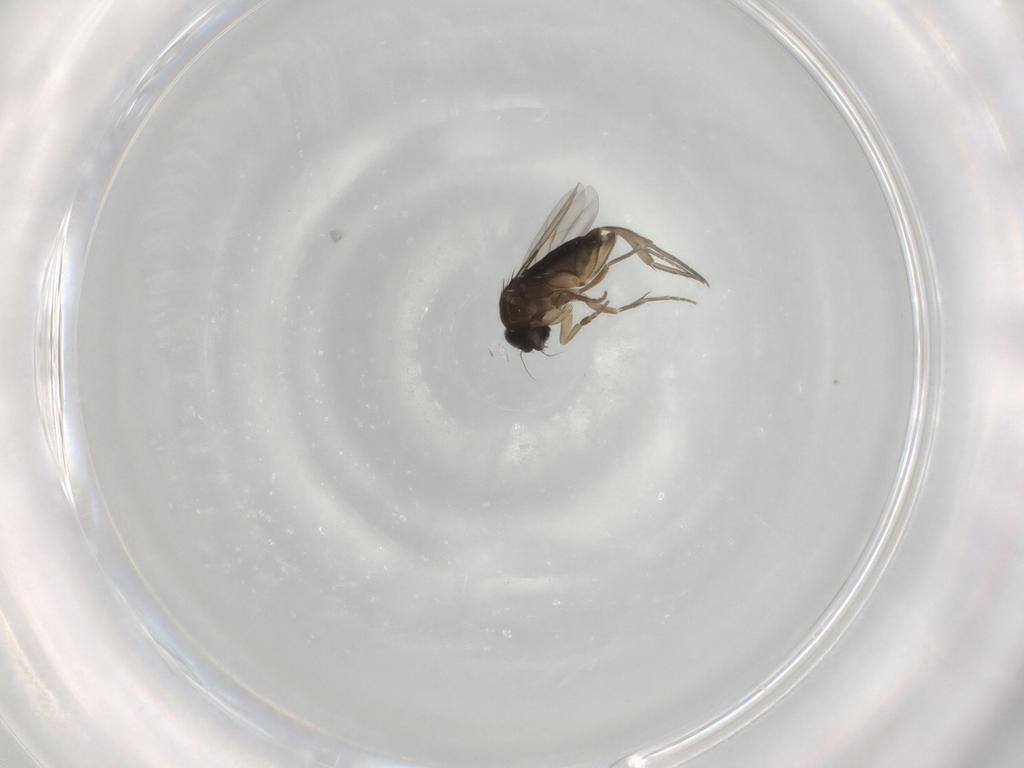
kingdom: Animalia
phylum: Arthropoda
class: Insecta
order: Diptera
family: Phoridae
